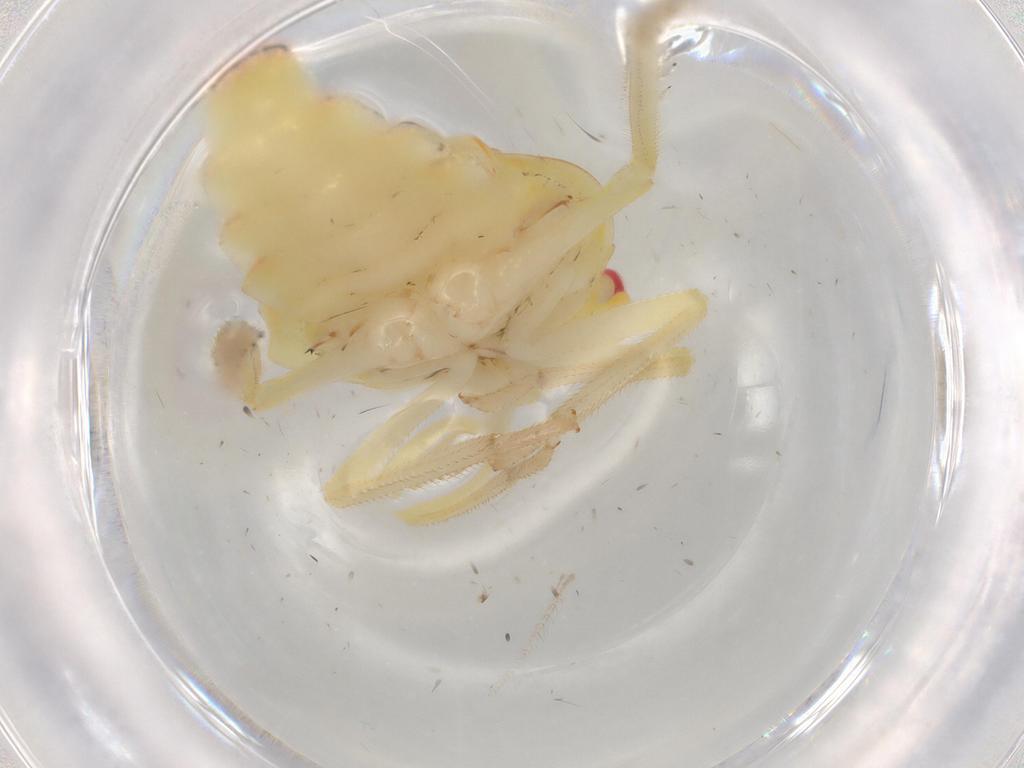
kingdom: Animalia
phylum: Arthropoda
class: Insecta
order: Hemiptera
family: Tropiduchidae
